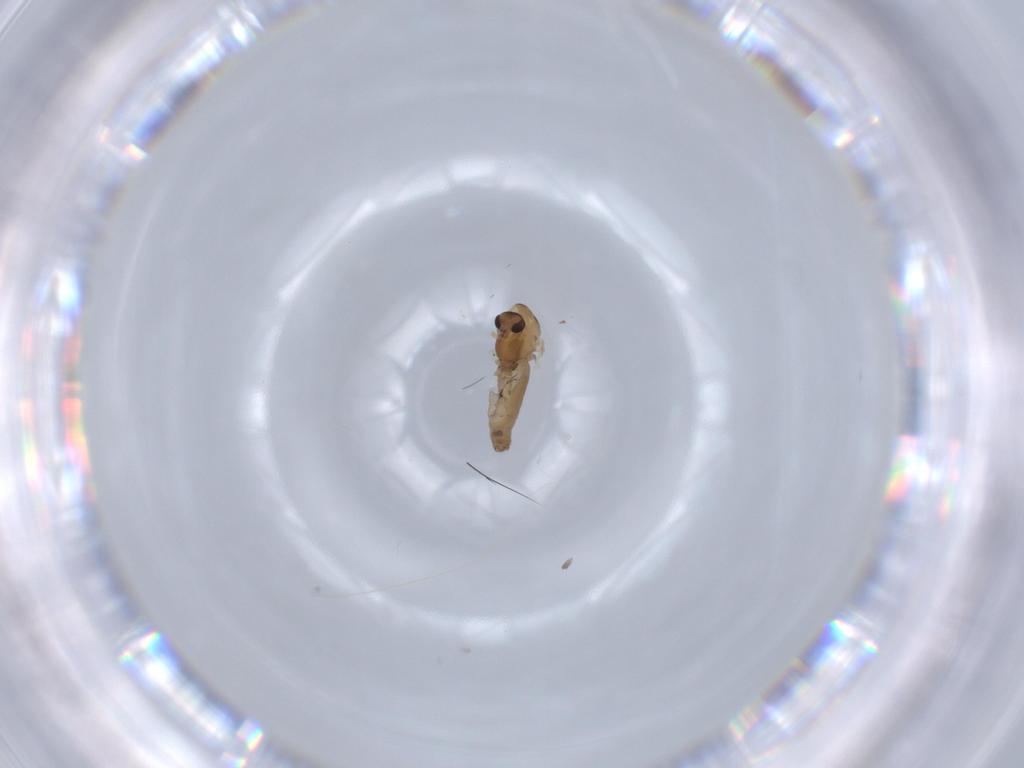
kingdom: Animalia
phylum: Arthropoda
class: Insecta
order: Diptera
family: Chironomidae
